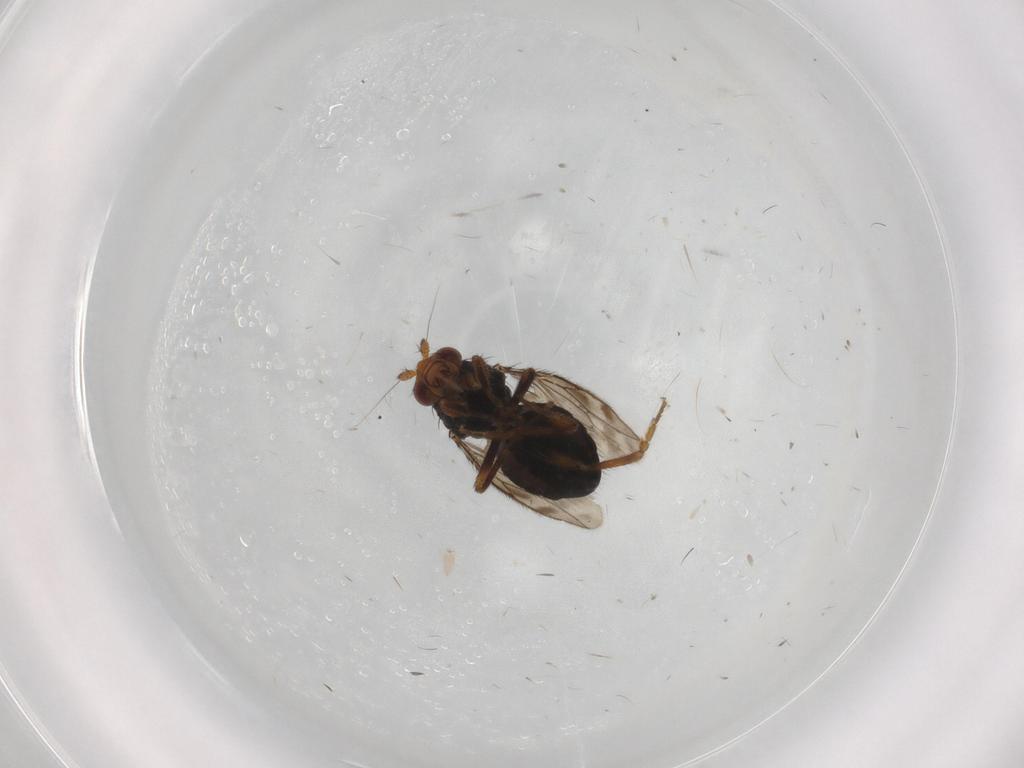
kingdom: Animalia
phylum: Arthropoda
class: Insecta
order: Diptera
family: Sphaeroceridae
